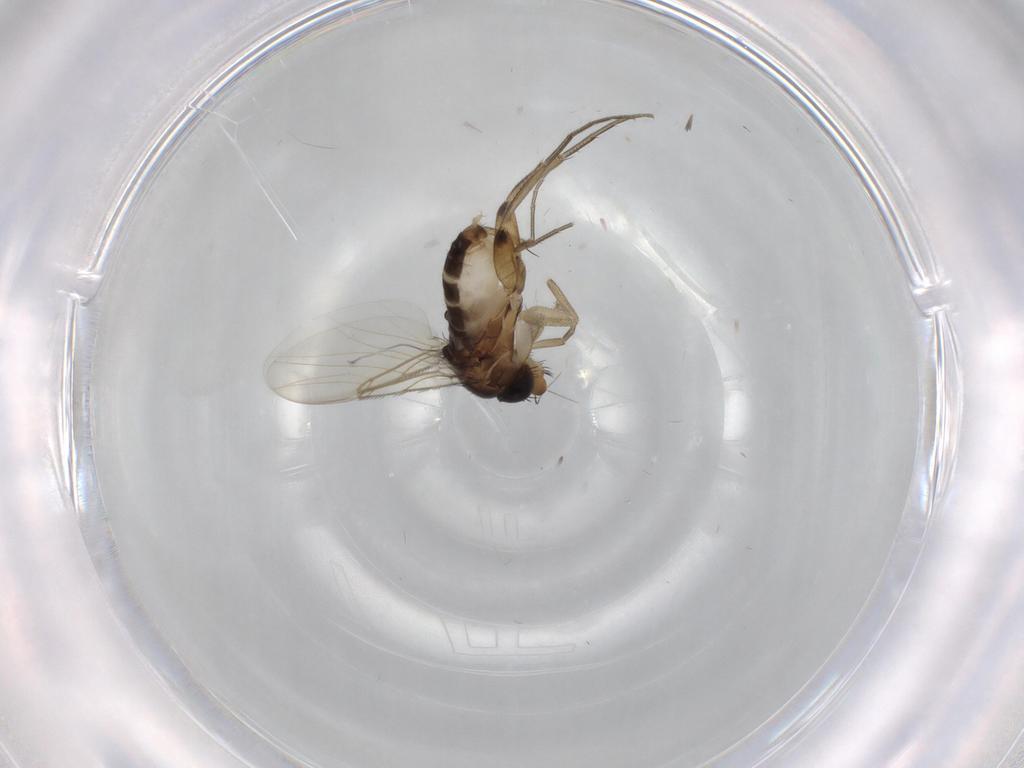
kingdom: Animalia
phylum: Arthropoda
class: Insecta
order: Diptera
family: Phoridae
